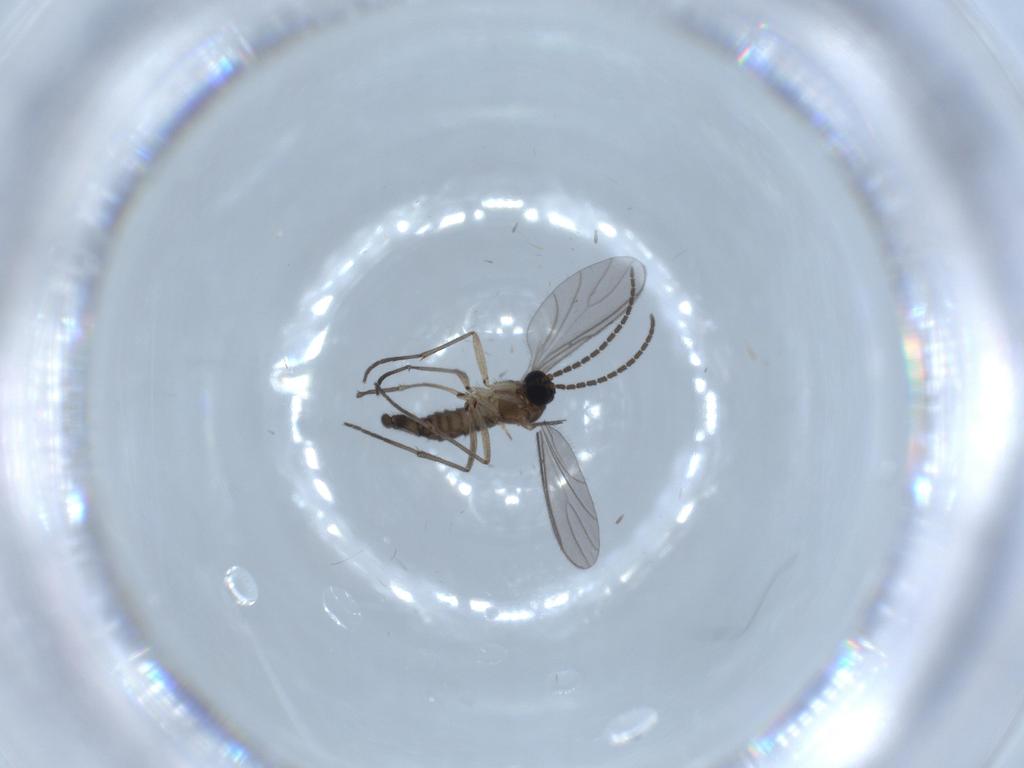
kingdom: Animalia
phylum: Arthropoda
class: Insecta
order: Diptera
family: Sciaridae
